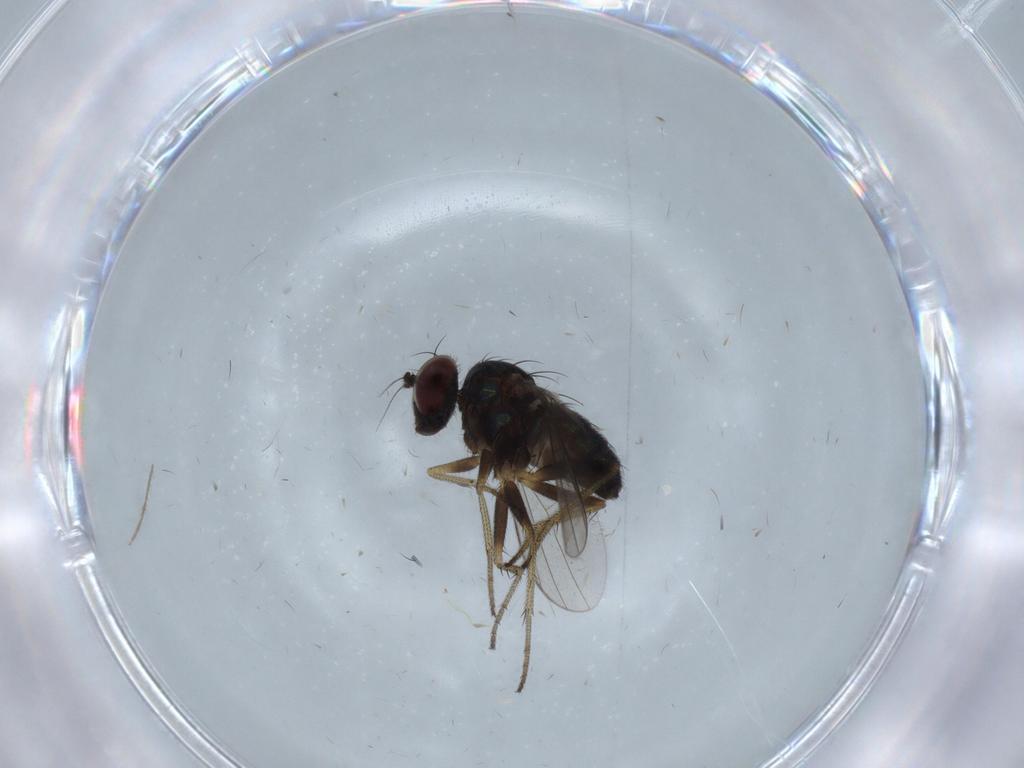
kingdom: Animalia
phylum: Arthropoda
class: Insecta
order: Diptera
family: Dolichopodidae
